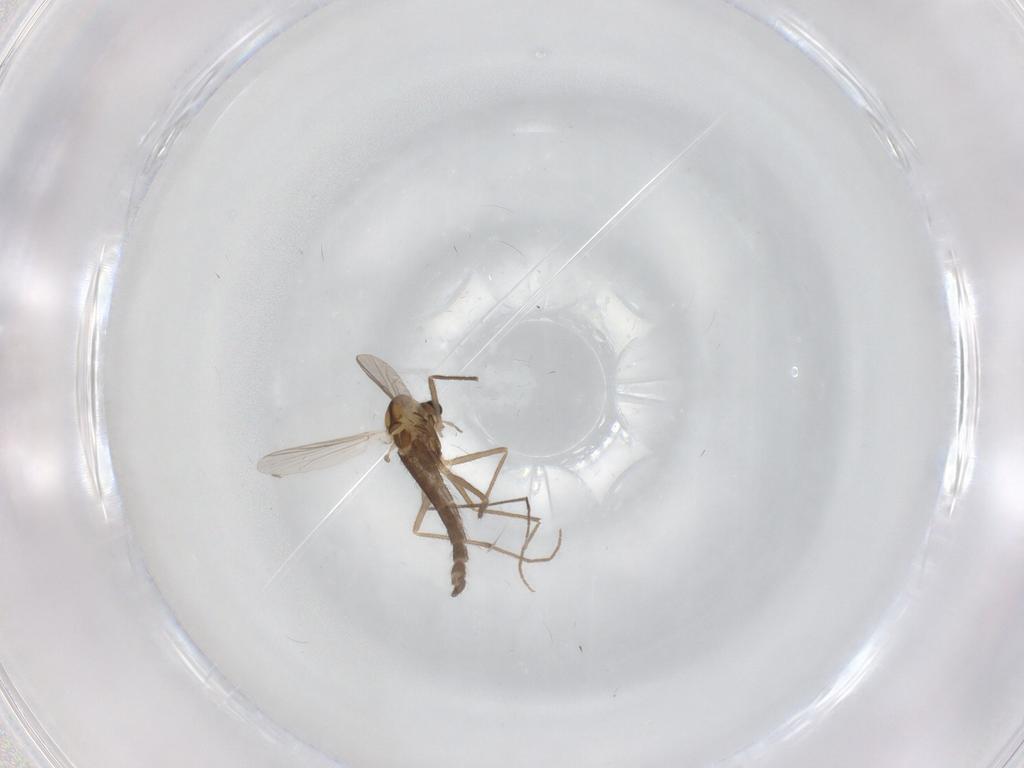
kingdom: Animalia
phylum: Arthropoda
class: Insecta
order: Diptera
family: Chironomidae
